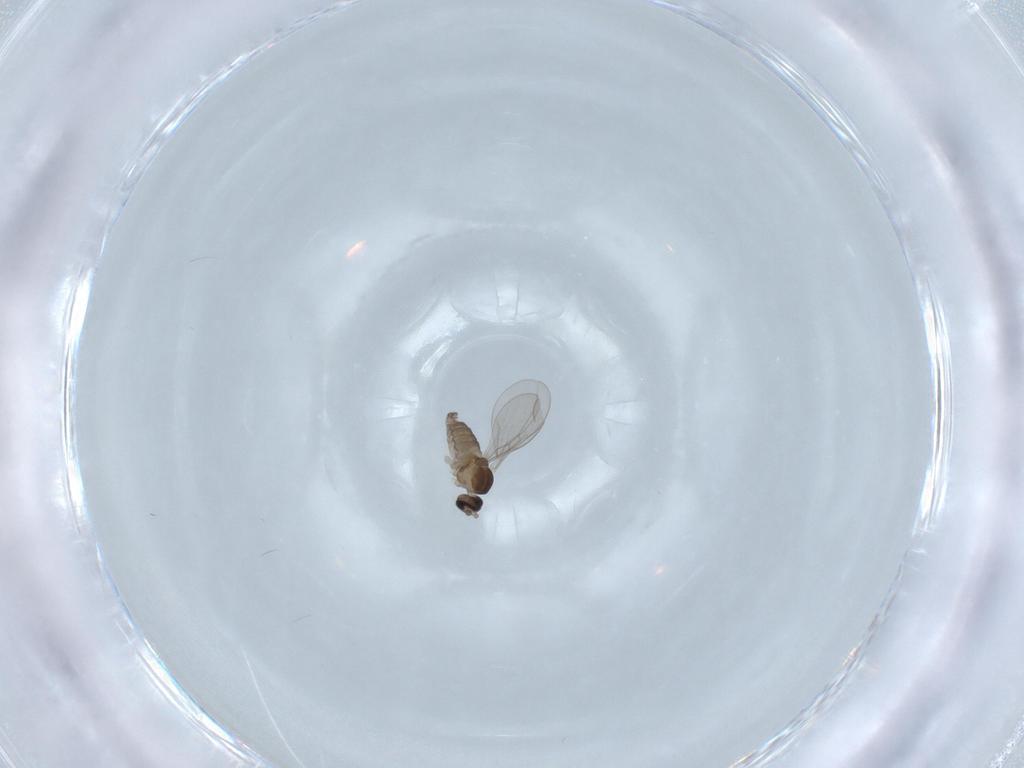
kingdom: Animalia
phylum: Arthropoda
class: Insecta
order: Diptera
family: Cecidomyiidae
